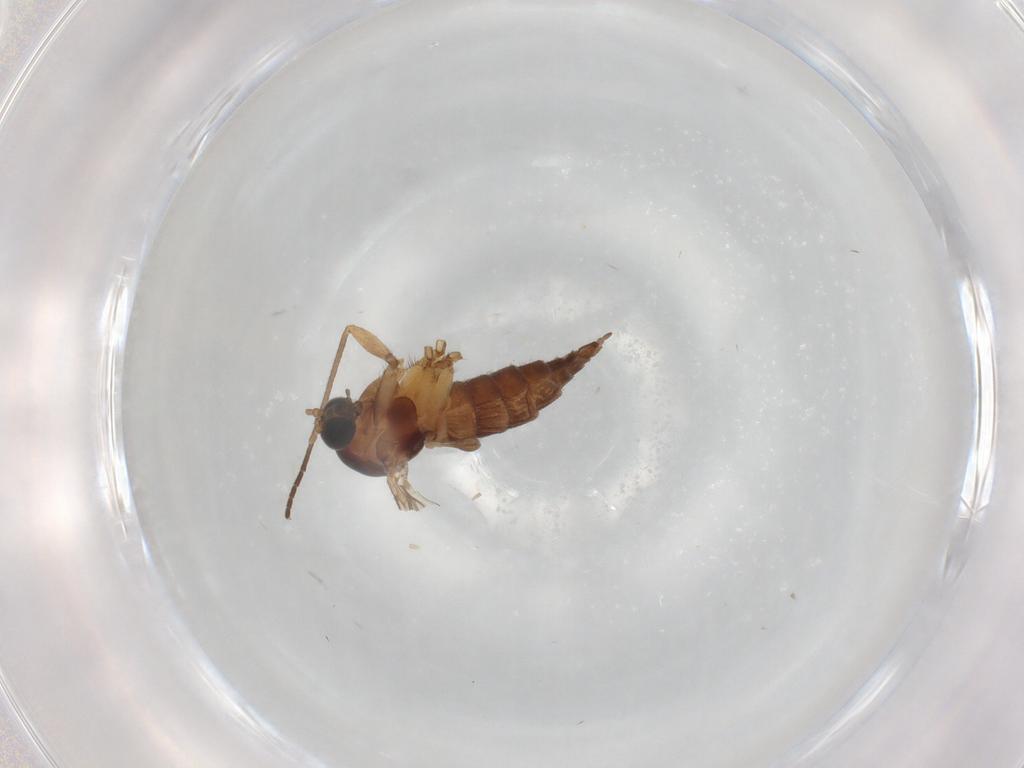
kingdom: Animalia
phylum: Arthropoda
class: Insecta
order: Diptera
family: Sciaridae
